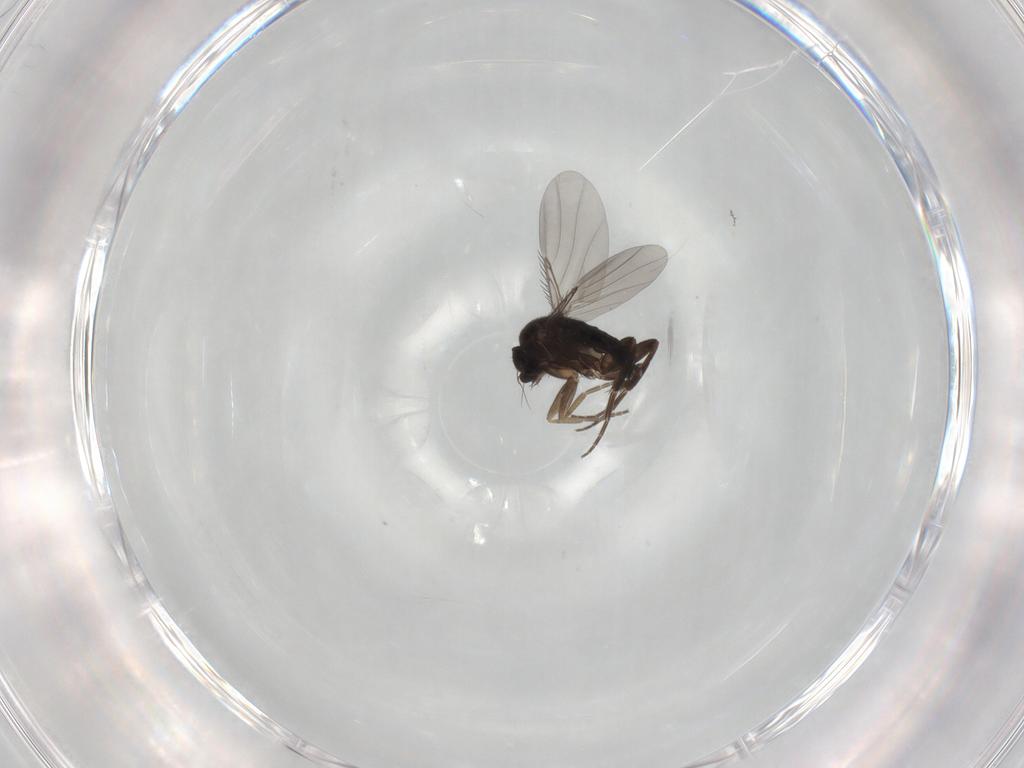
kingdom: Animalia
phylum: Arthropoda
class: Insecta
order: Diptera
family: Phoridae
